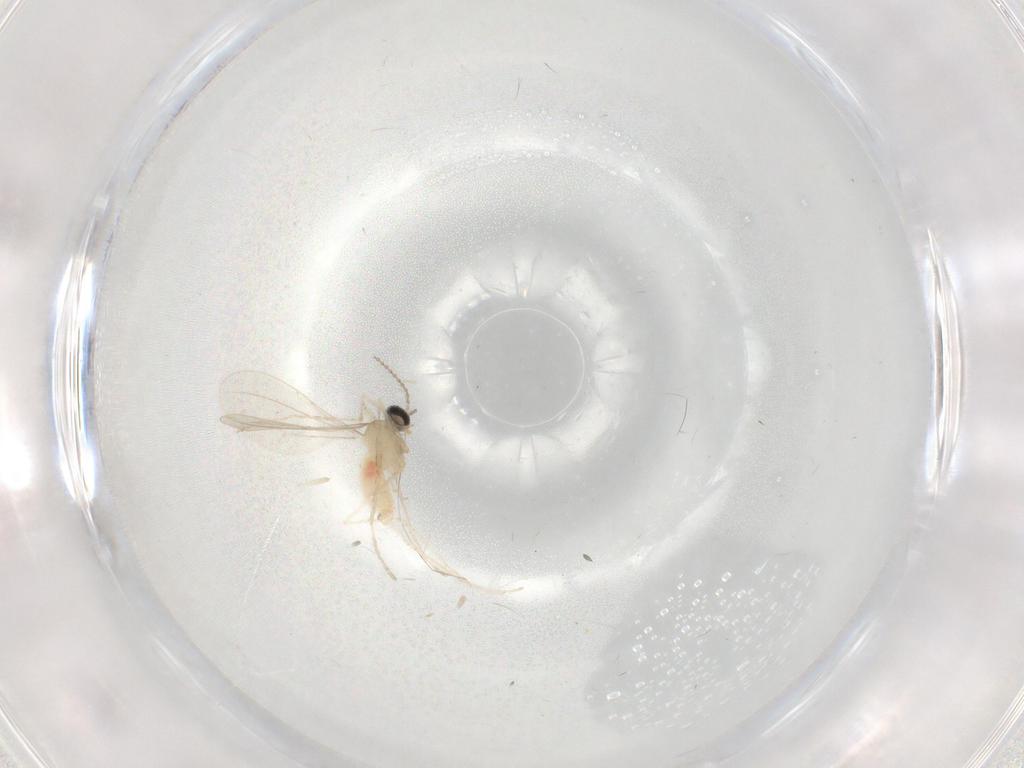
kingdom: Animalia
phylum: Arthropoda
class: Insecta
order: Diptera
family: Cecidomyiidae
